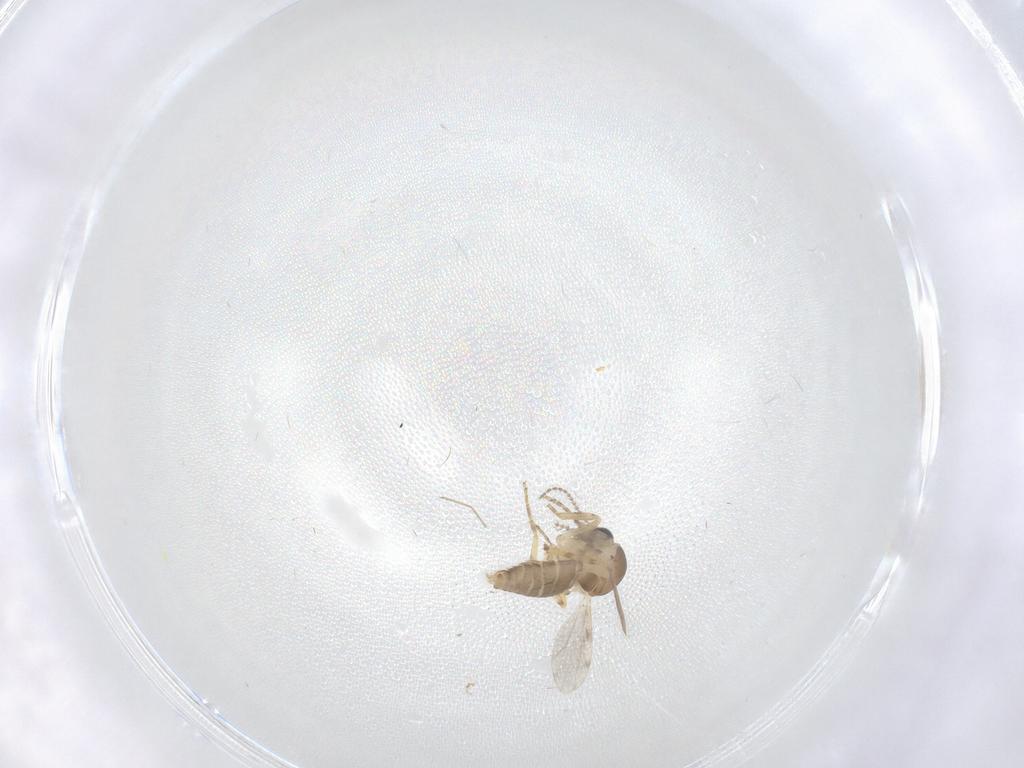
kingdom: Animalia
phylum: Arthropoda
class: Insecta
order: Diptera
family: Ceratopogonidae
